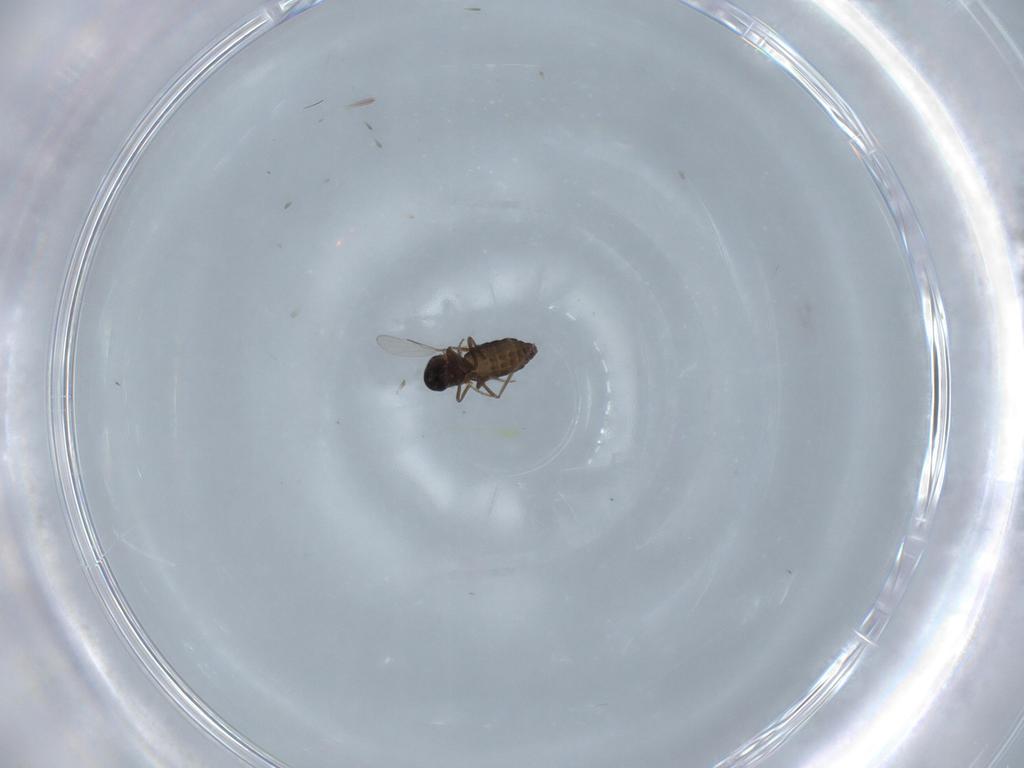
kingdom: Animalia
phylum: Arthropoda
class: Insecta
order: Diptera
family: Ceratopogonidae
